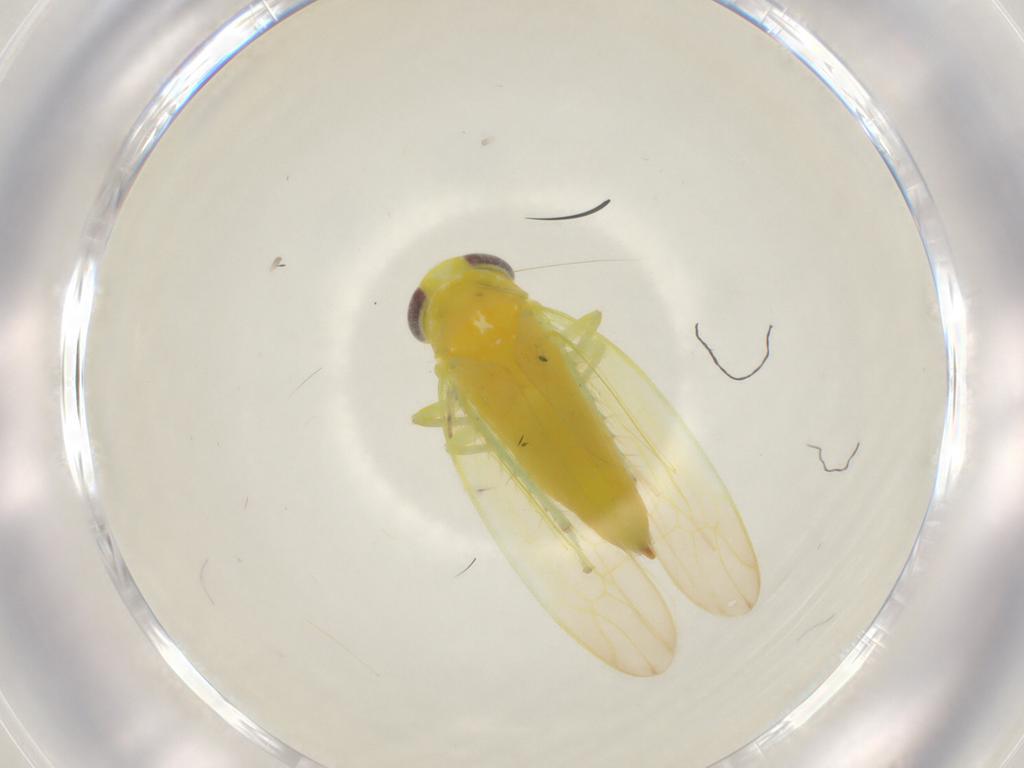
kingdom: Animalia
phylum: Arthropoda
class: Insecta
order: Hemiptera
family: Cicadellidae
